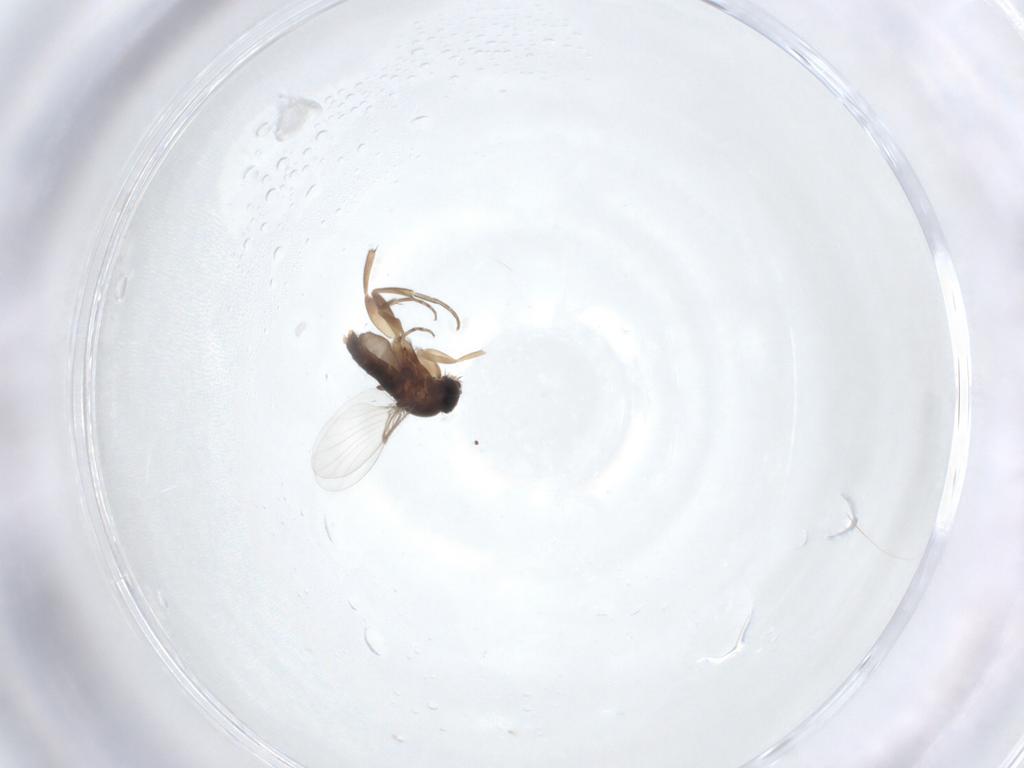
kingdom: Animalia
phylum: Arthropoda
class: Insecta
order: Diptera
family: Phoridae
